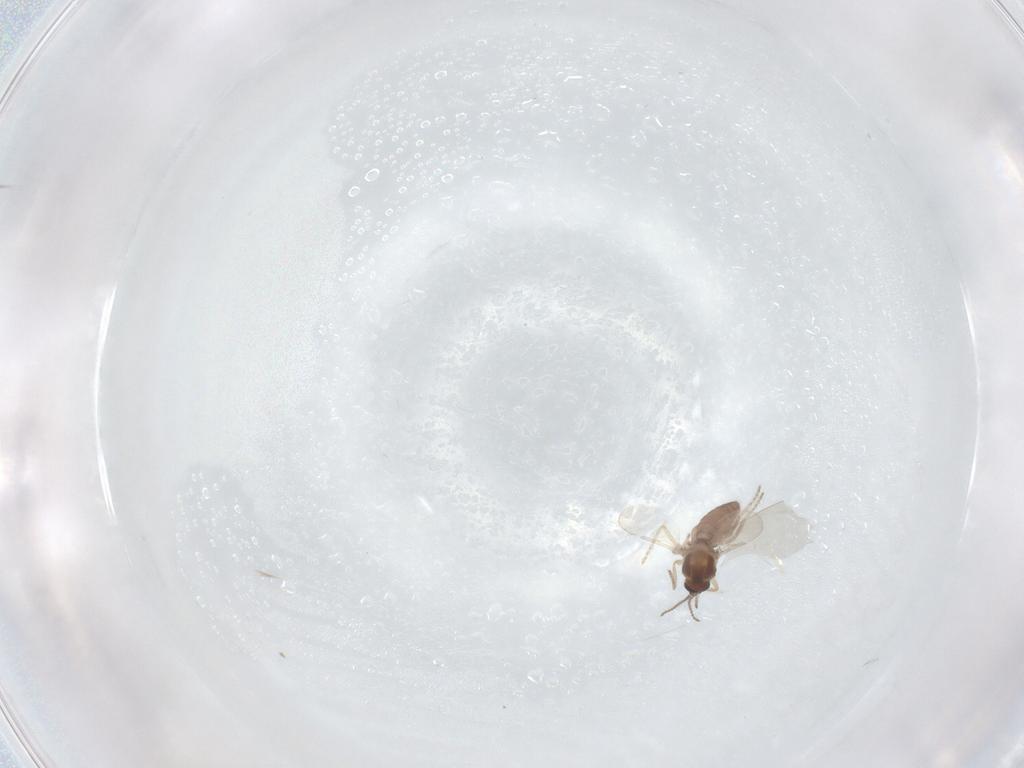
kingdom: Animalia
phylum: Arthropoda
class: Insecta
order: Diptera
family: Ceratopogonidae
